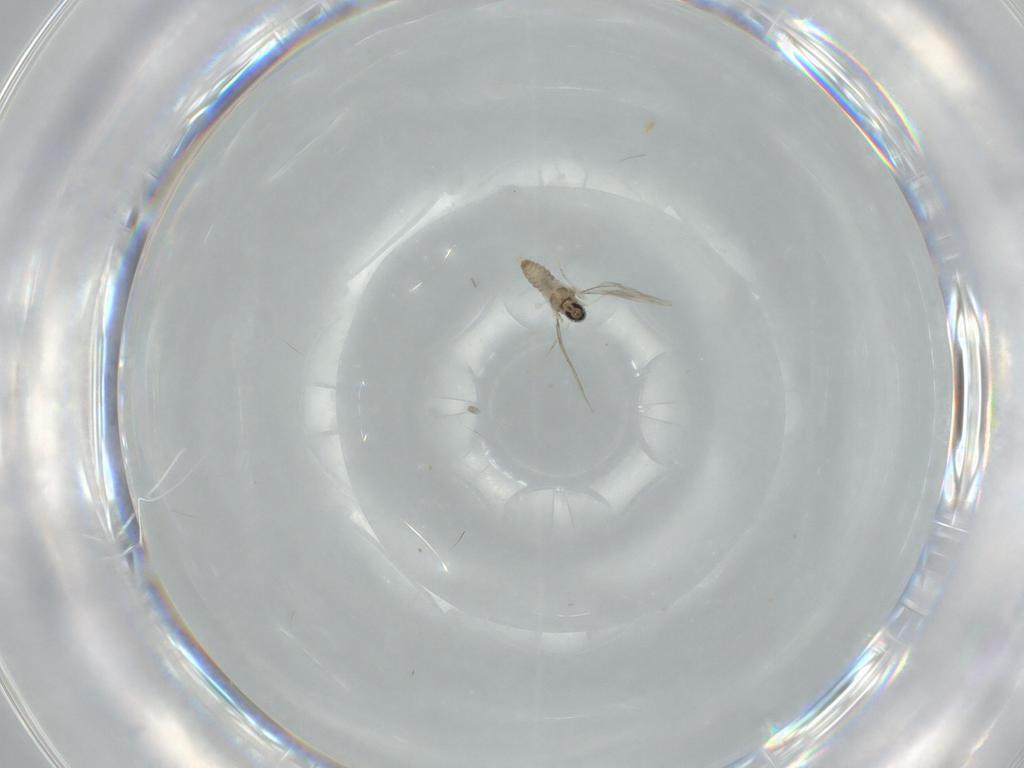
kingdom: Animalia
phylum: Arthropoda
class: Insecta
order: Diptera
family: Cecidomyiidae
